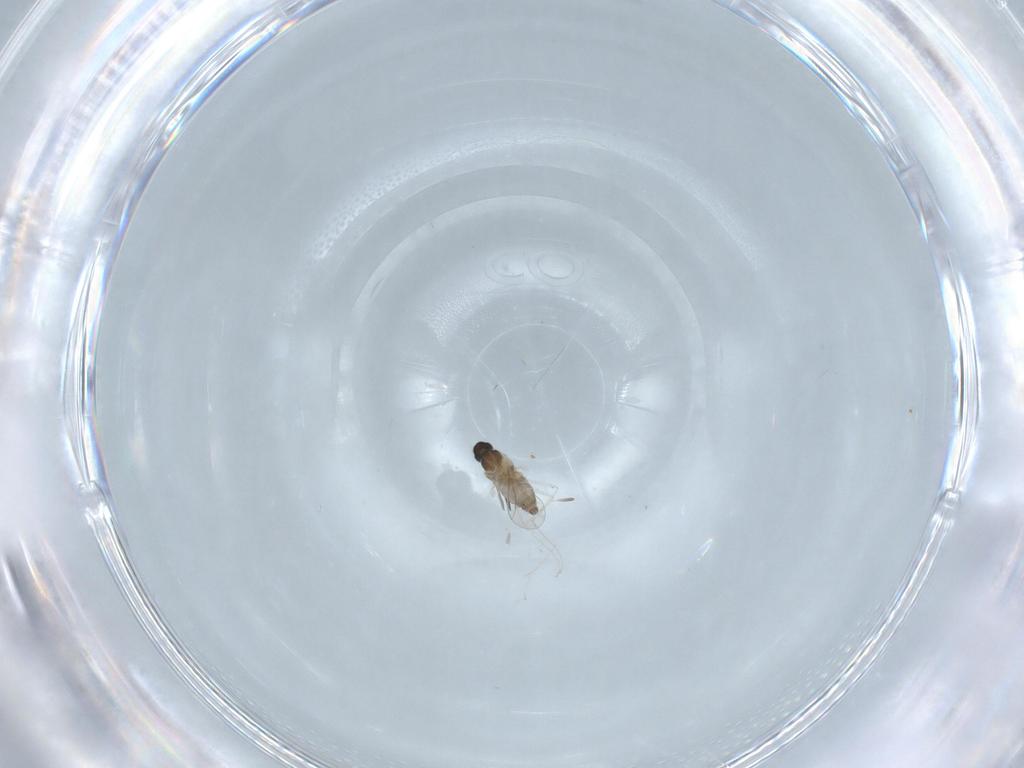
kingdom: Animalia
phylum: Arthropoda
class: Insecta
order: Diptera
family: Cecidomyiidae
